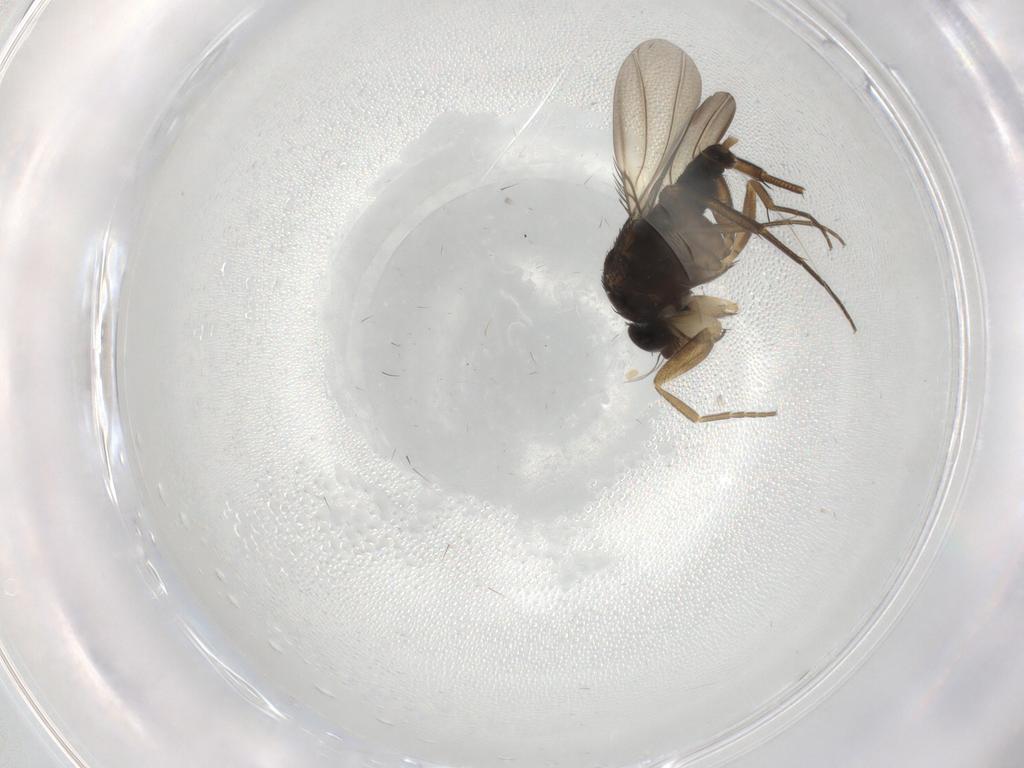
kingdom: Animalia
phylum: Arthropoda
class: Insecta
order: Diptera
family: Phoridae
